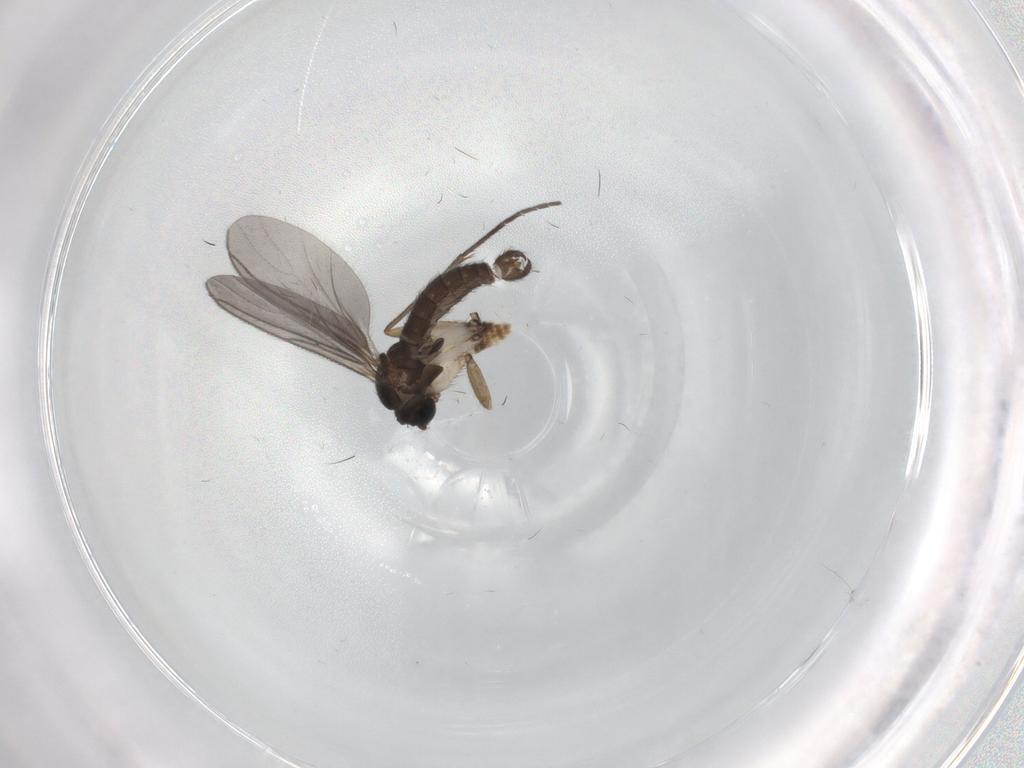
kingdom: Animalia
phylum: Arthropoda
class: Insecta
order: Diptera
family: Sciaridae
